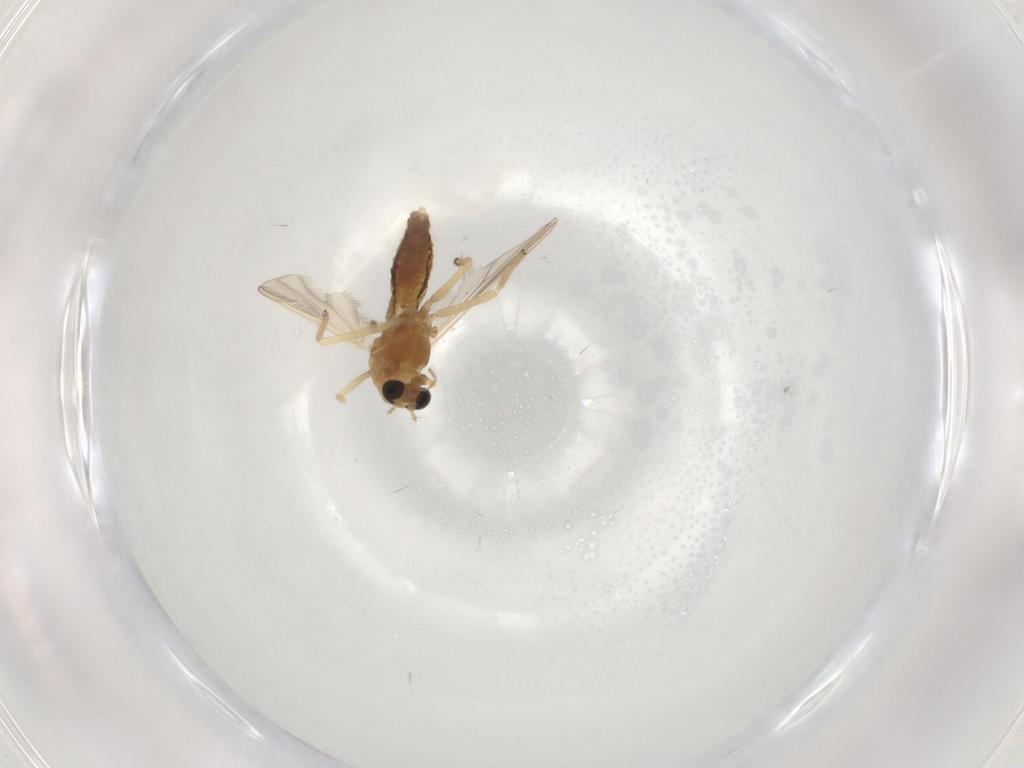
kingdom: Animalia
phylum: Arthropoda
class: Insecta
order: Diptera
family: Chironomidae
